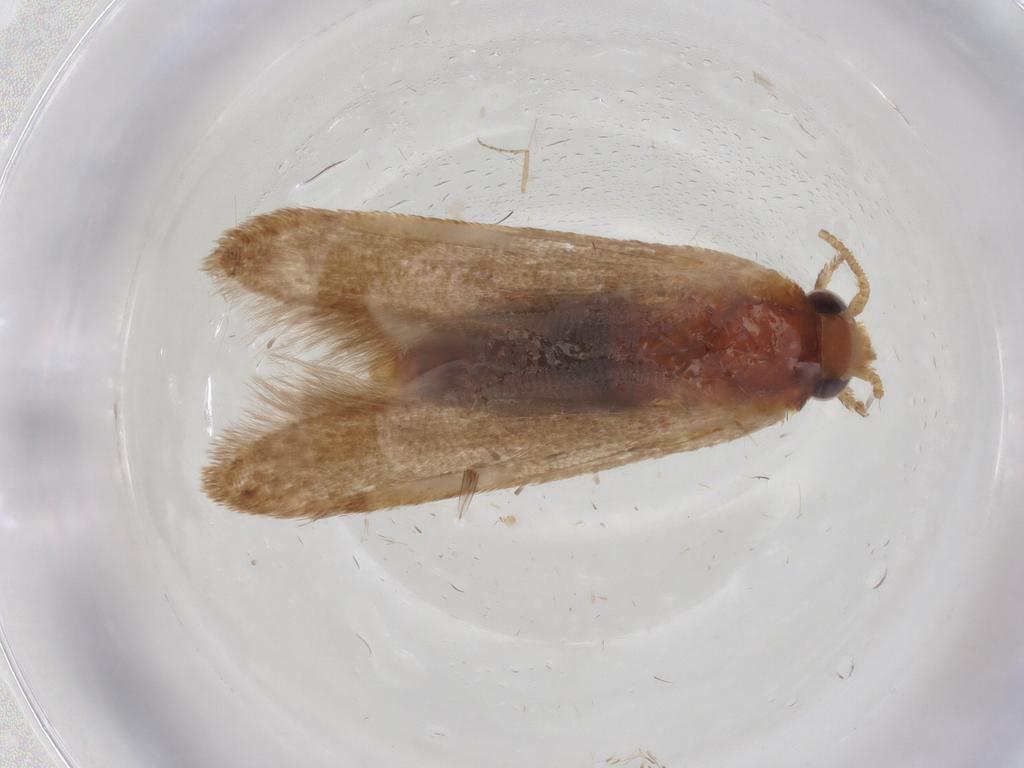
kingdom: Animalia
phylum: Arthropoda
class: Insecta
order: Lepidoptera
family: Blastobasidae
